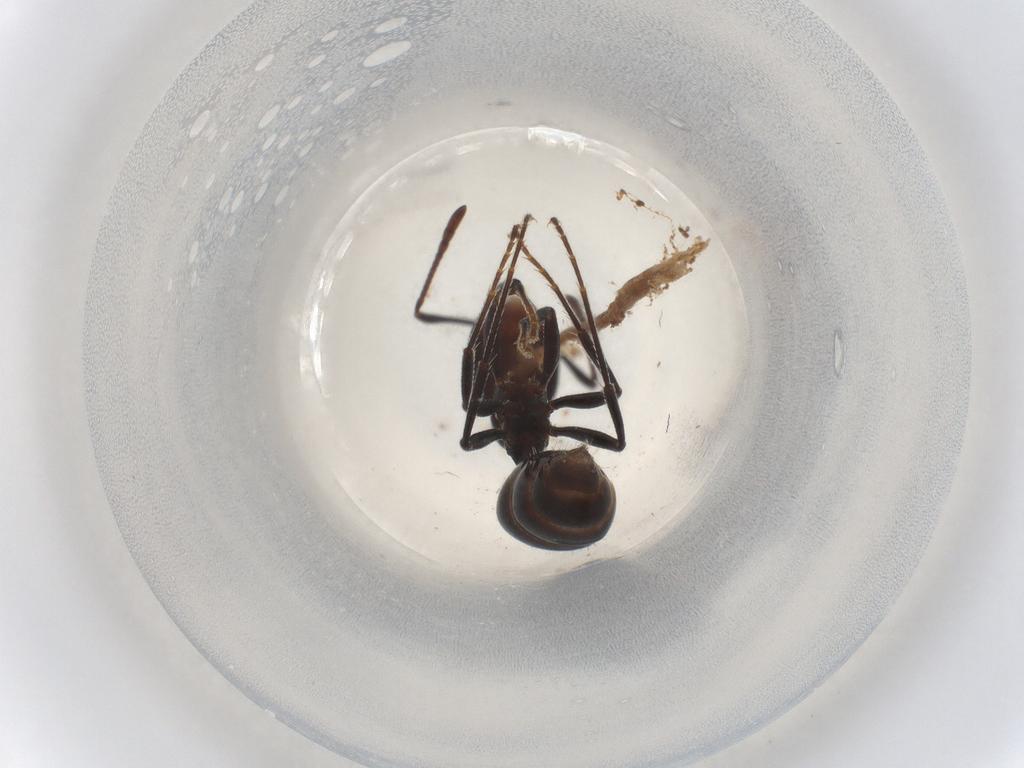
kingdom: Animalia
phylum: Arthropoda
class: Insecta
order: Hymenoptera
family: Formicidae
